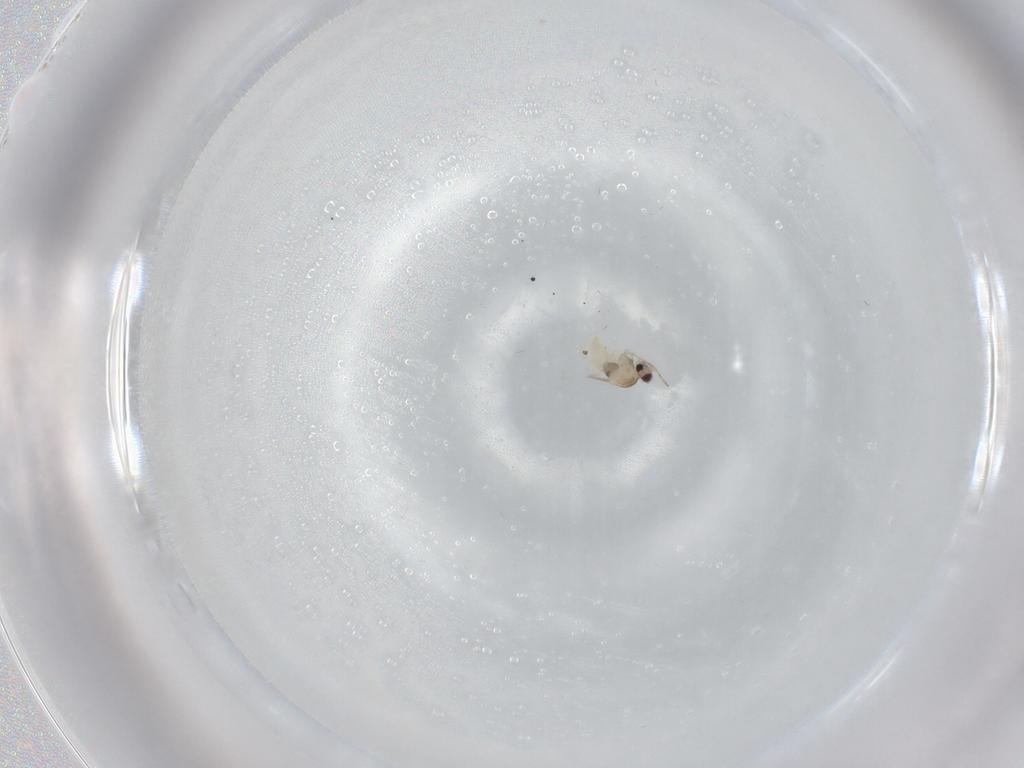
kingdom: Animalia
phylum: Arthropoda
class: Insecta
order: Diptera
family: Cecidomyiidae
